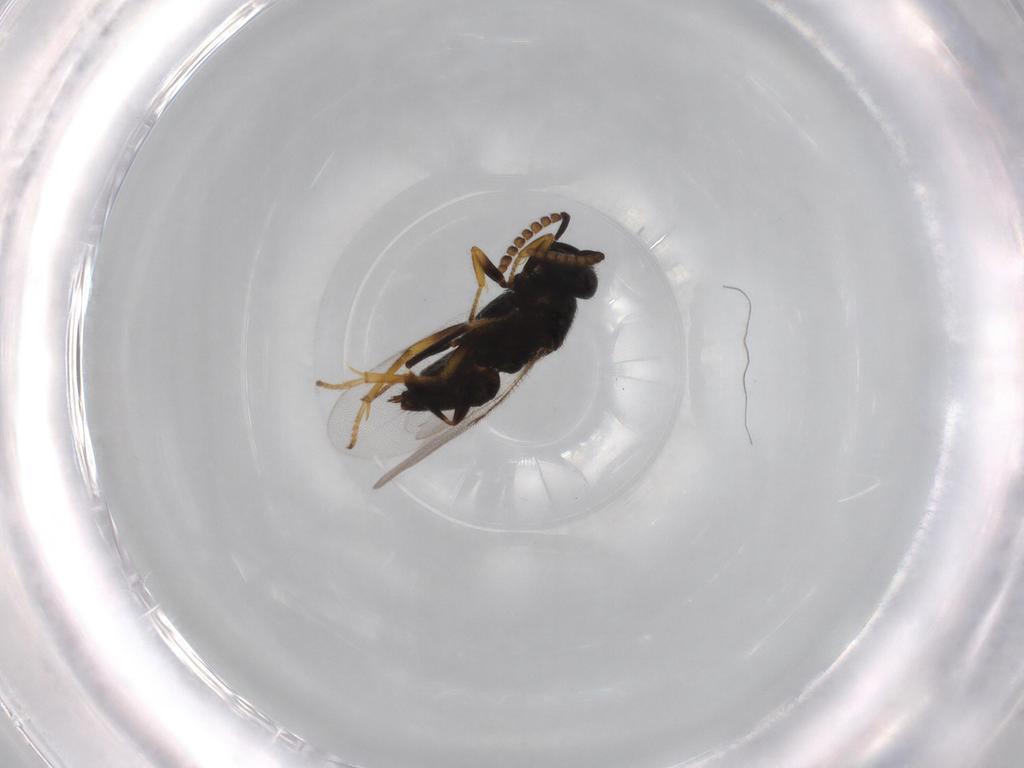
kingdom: Animalia
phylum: Arthropoda
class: Insecta
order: Hymenoptera
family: Encyrtidae
